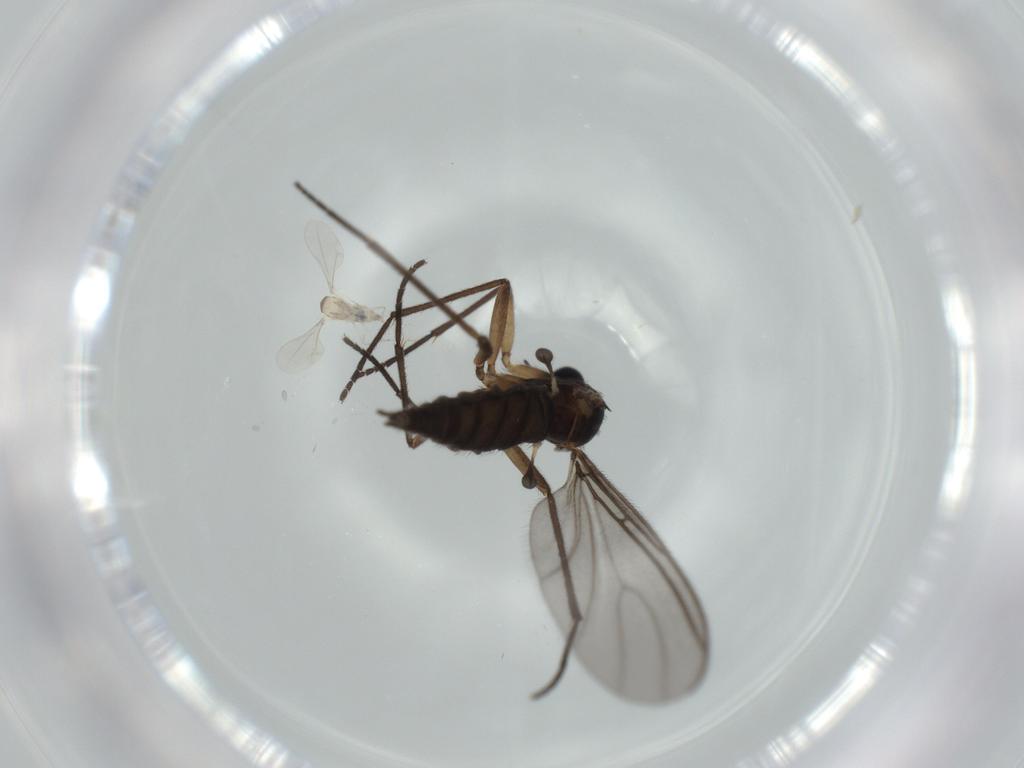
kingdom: Animalia
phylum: Arthropoda
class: Insecta
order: Diptera
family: Sciaridae
